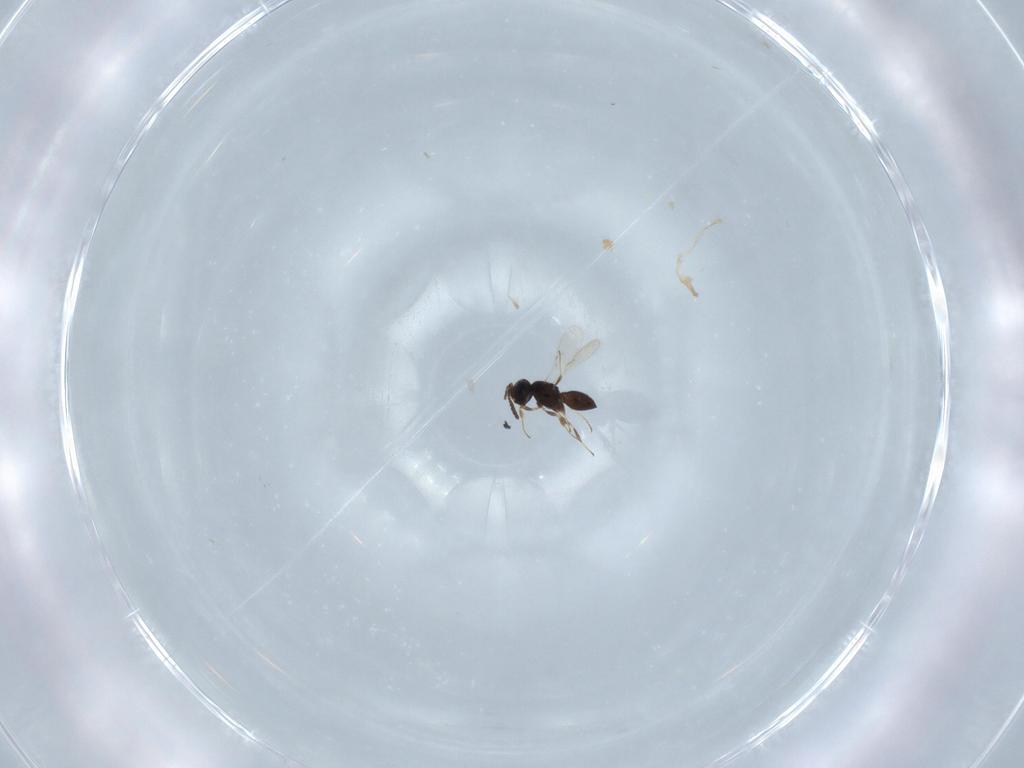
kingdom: Animalia
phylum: Arthropoda
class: Insecta
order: Hymenoptera
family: Scelionidae
